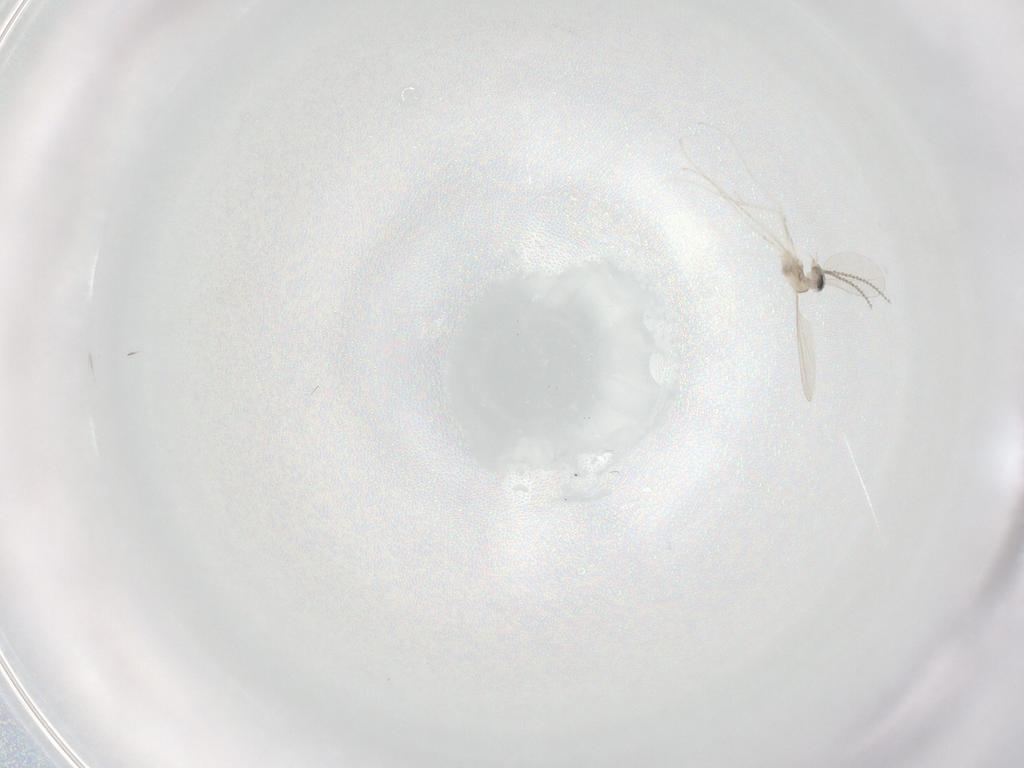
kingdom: Animalia
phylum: Arthropoda
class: Insecta
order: Diptera
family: Cecidomyiidae
